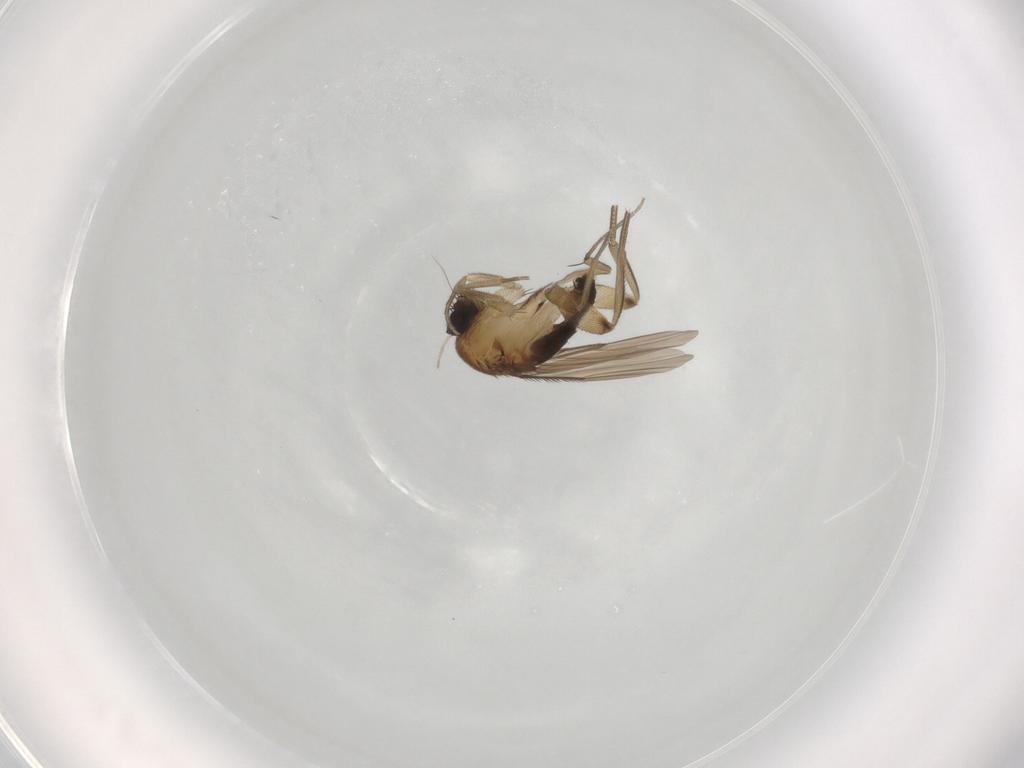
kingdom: Animalia
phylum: Arthropoda
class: Insecta
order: Diptera
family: Phoridae
